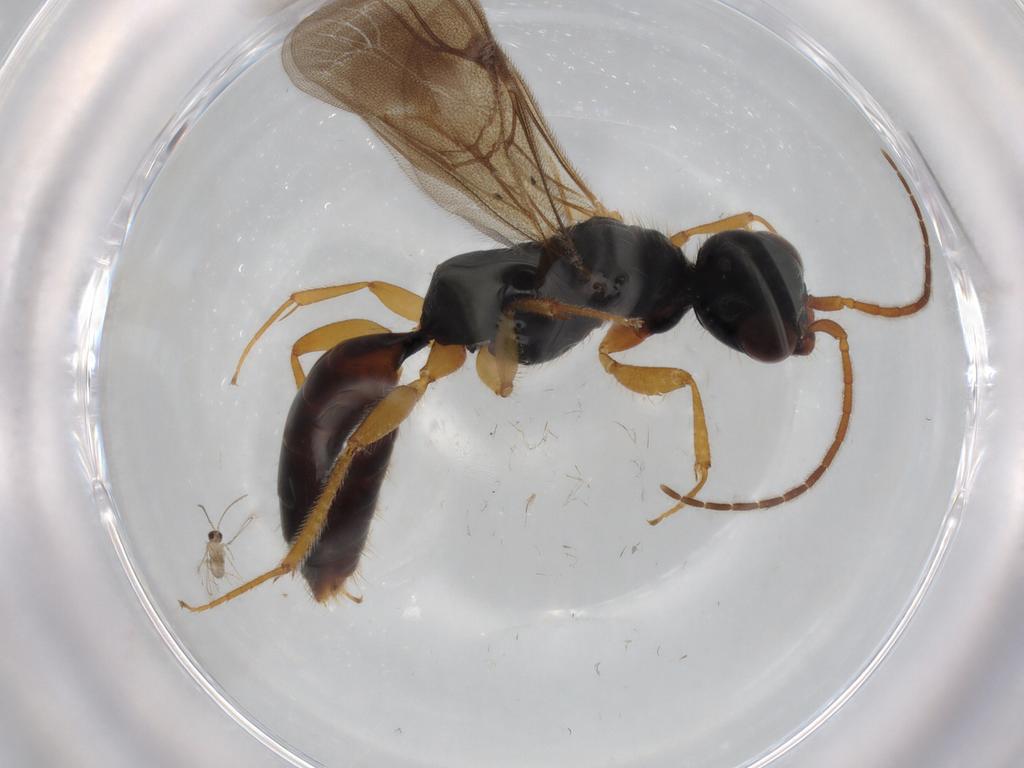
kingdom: Animalia
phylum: Arthropoda
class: Insecta
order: Hymenoptera
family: Bethylidae
